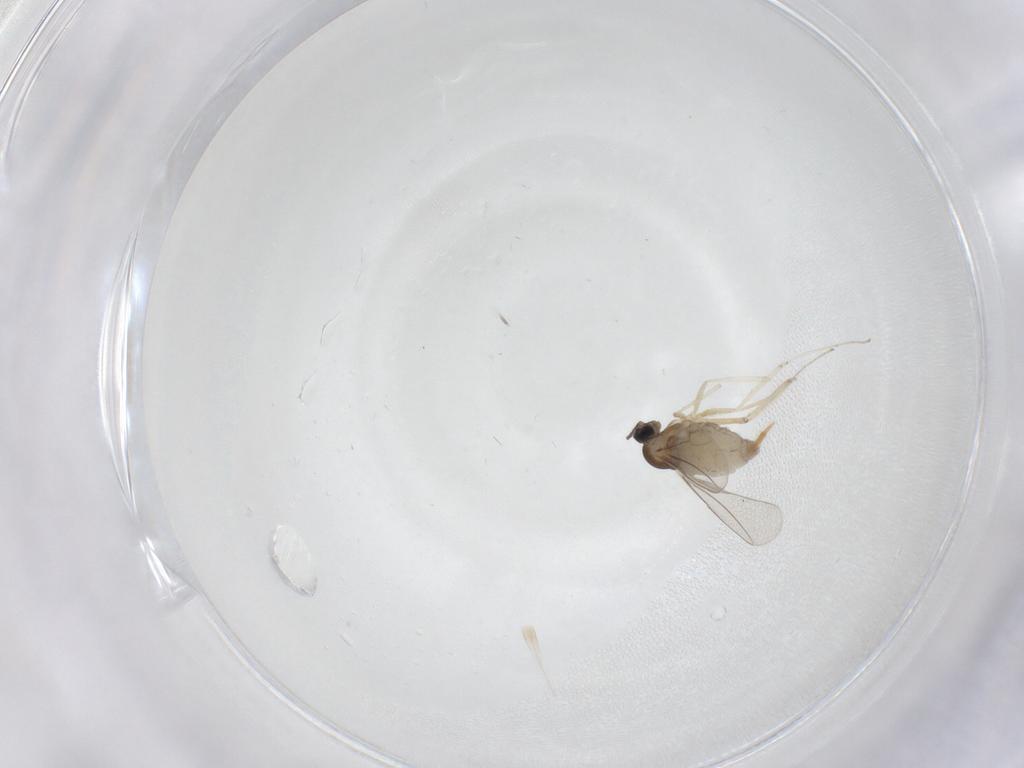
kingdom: Animalia
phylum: Arthropoda
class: Insecta
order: Diptera
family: Cecidomyiidae
